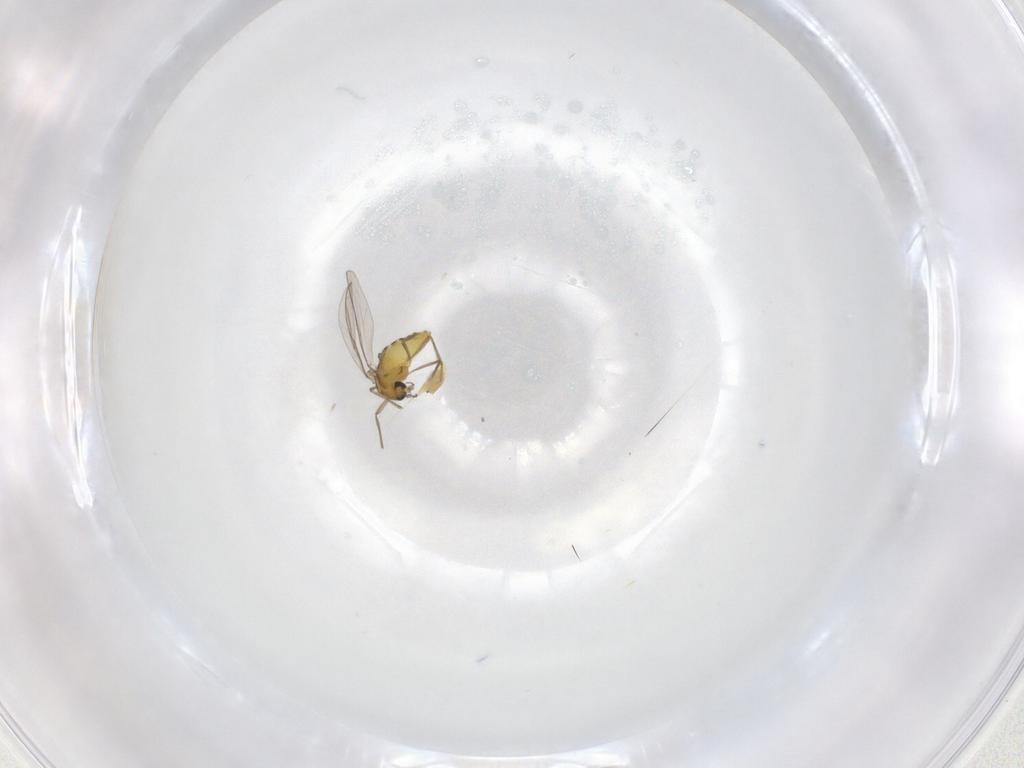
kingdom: Animalia
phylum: Arthropoda
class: Insecta
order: Diptera
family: Chironomidae
